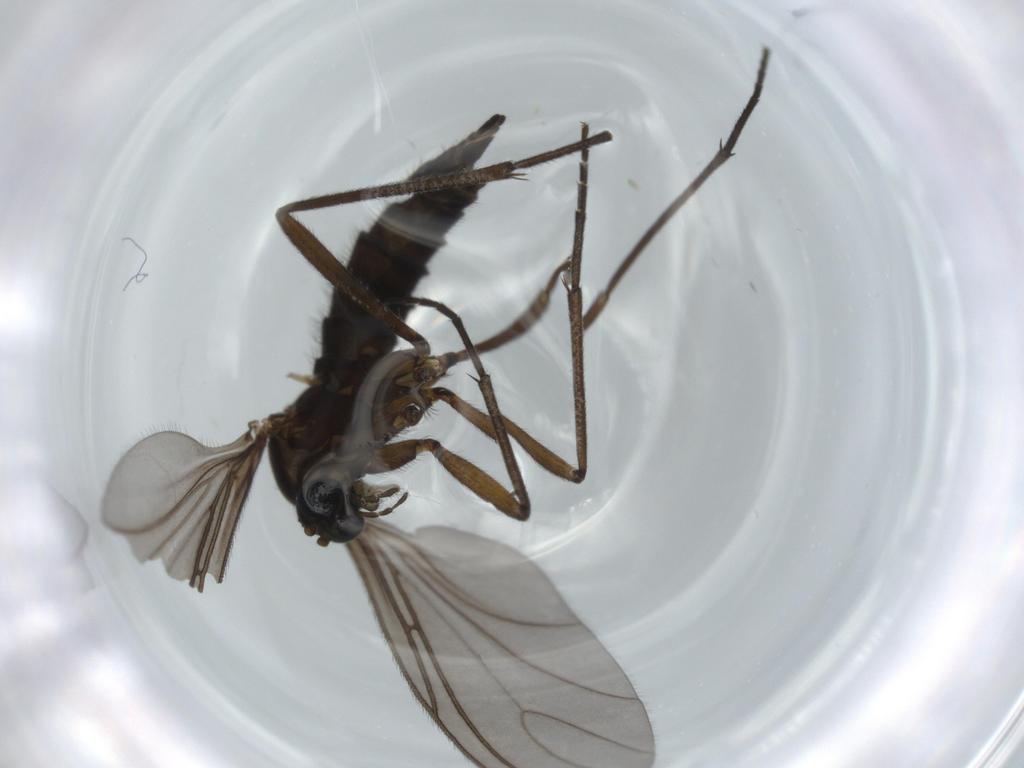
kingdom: Animalia
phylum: Arthropoda
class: Insecta
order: Diptera
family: Sciaridae
